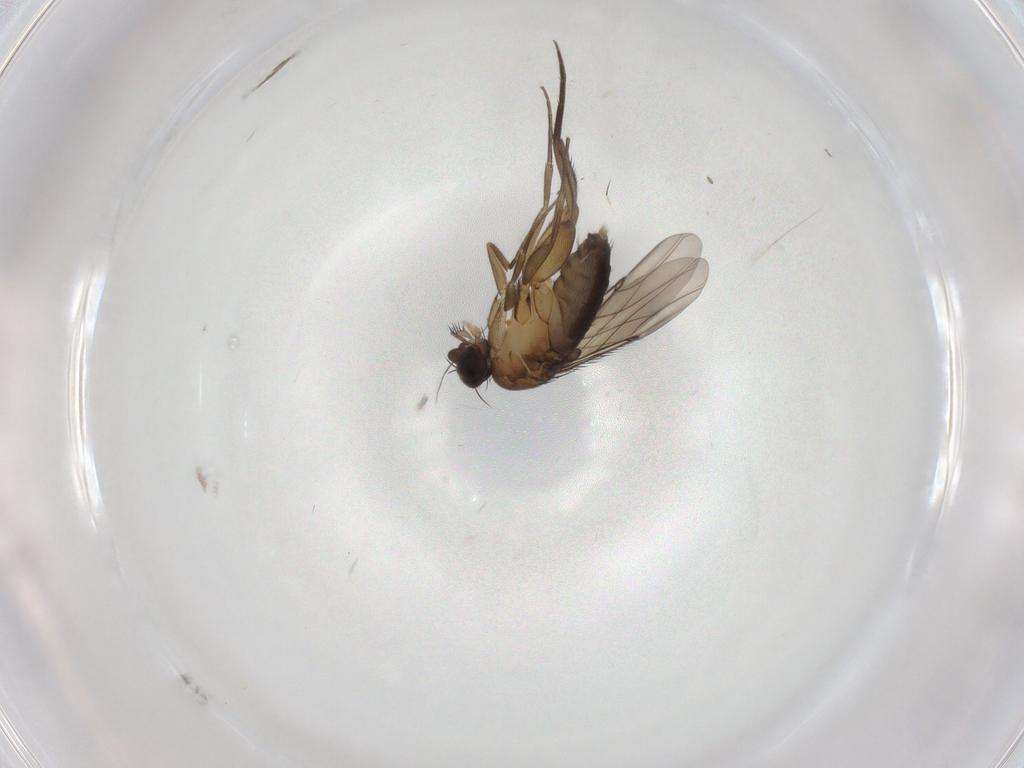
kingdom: Animalia
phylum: Arthropoda
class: Insecta
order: Diptera
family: Phoridae
